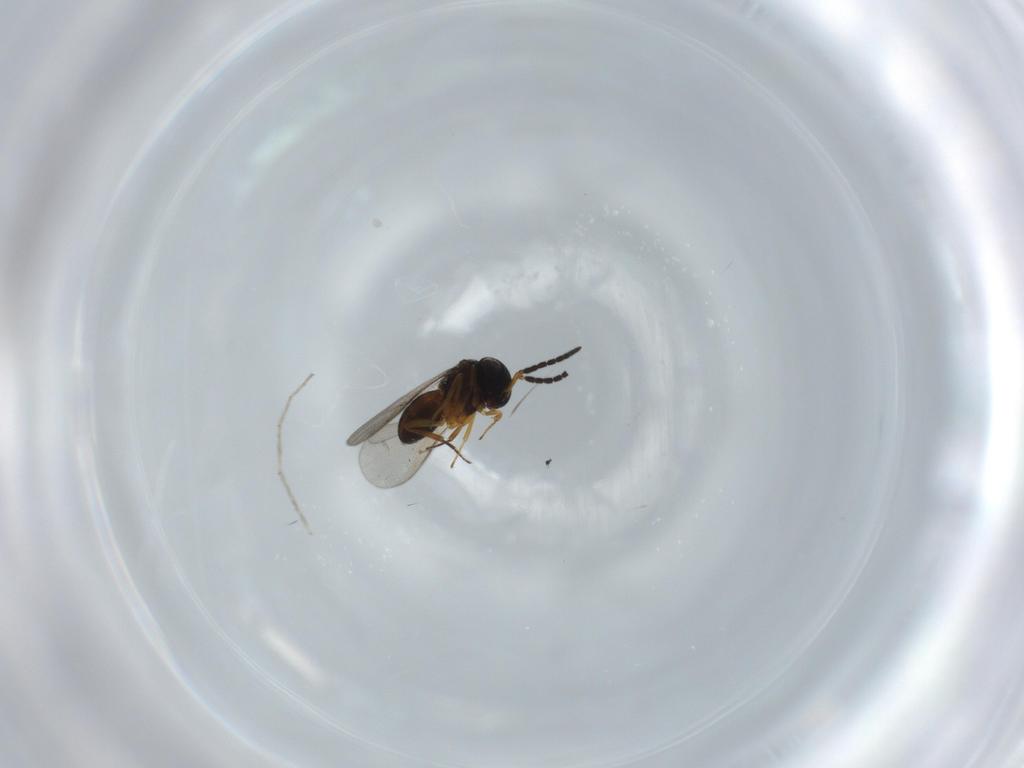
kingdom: Animalia
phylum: Arthropoda
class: Insecta
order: Hymenoptera
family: Scelionidae
